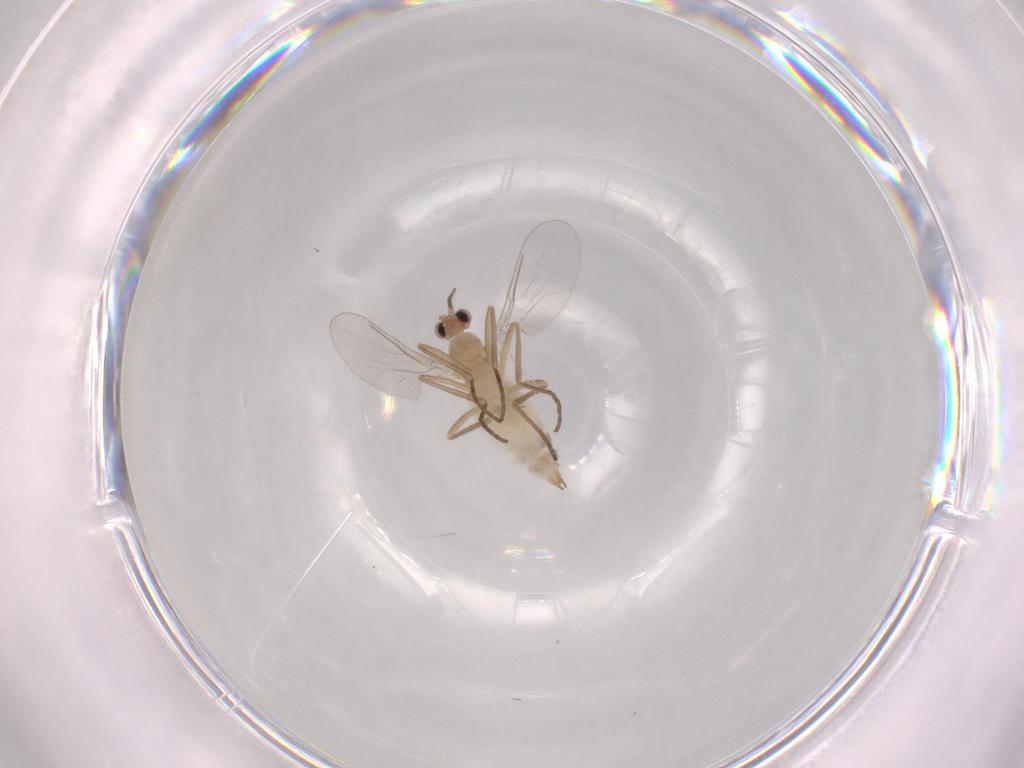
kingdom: Animalia
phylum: Arthropoda
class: Insecta
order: Diptera
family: Cecidomyiidae
